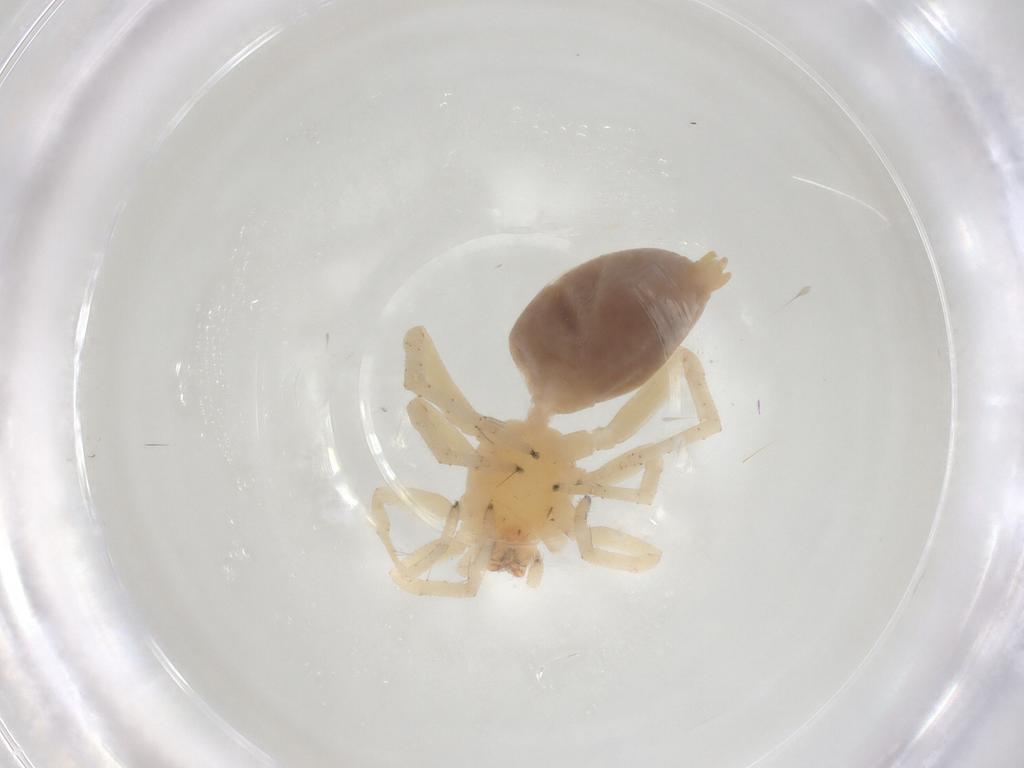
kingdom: Animalia
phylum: Arthropoda
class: Arachnida
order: Araneae
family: Clubionidae
